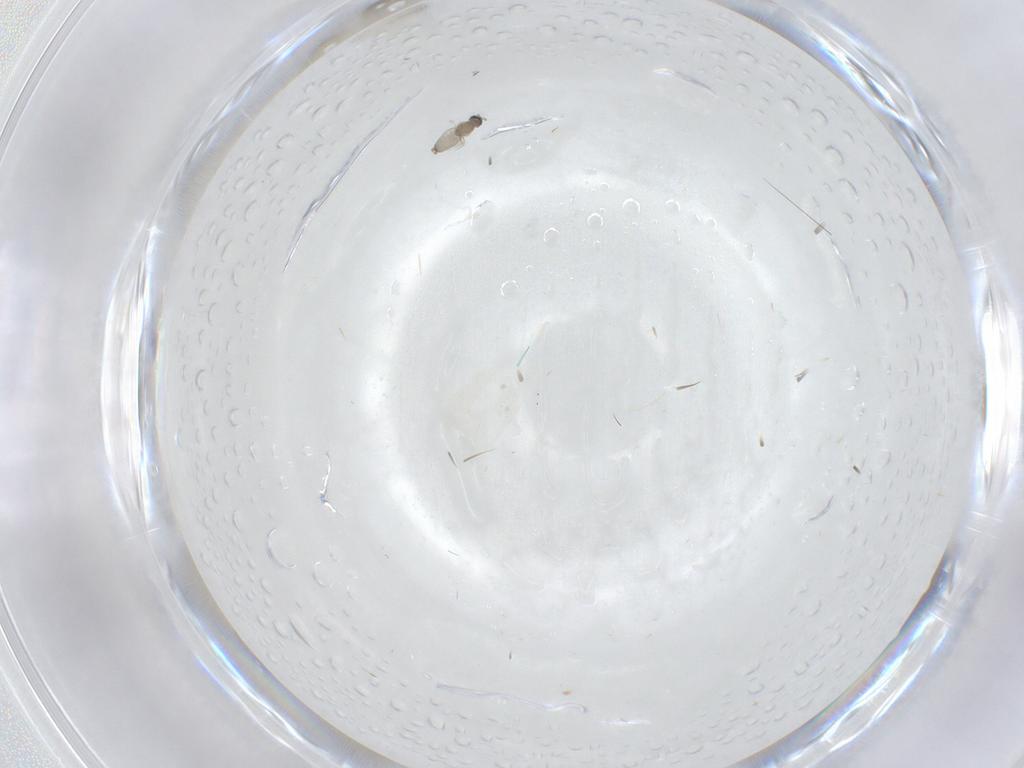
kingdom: Animalia
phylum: Arthropoda
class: Insecta
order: Diptera
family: Cecidomyiidae
